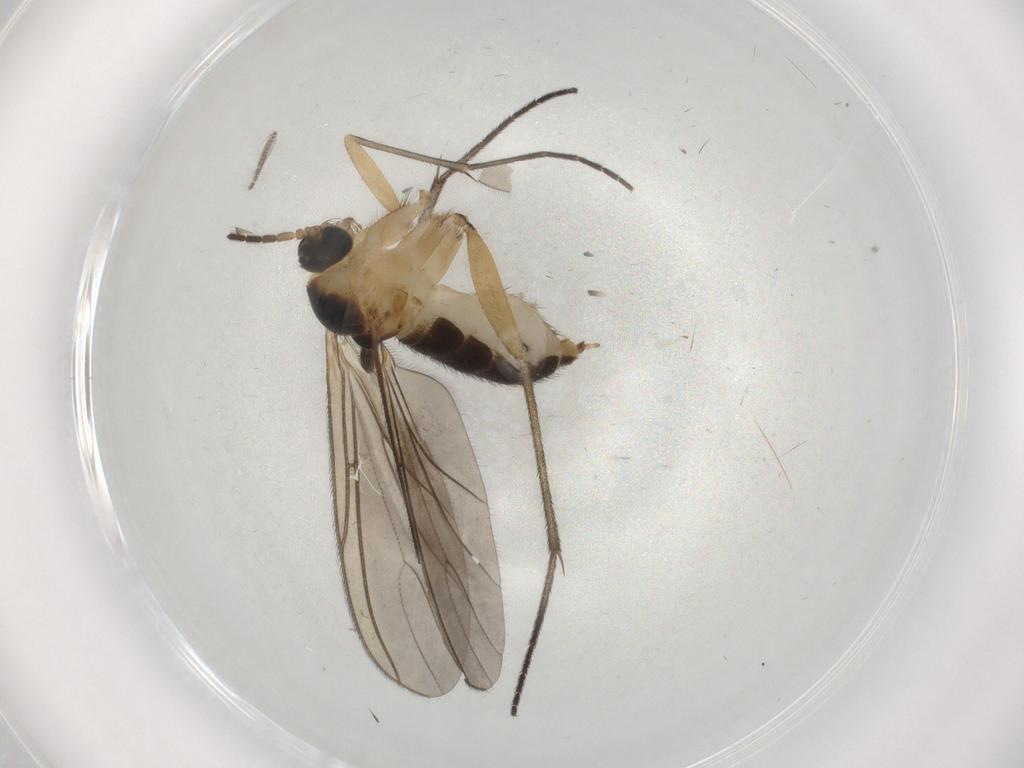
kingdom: Animalia
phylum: Arthropoda
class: Insecta
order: Diptera
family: Sciaridae
